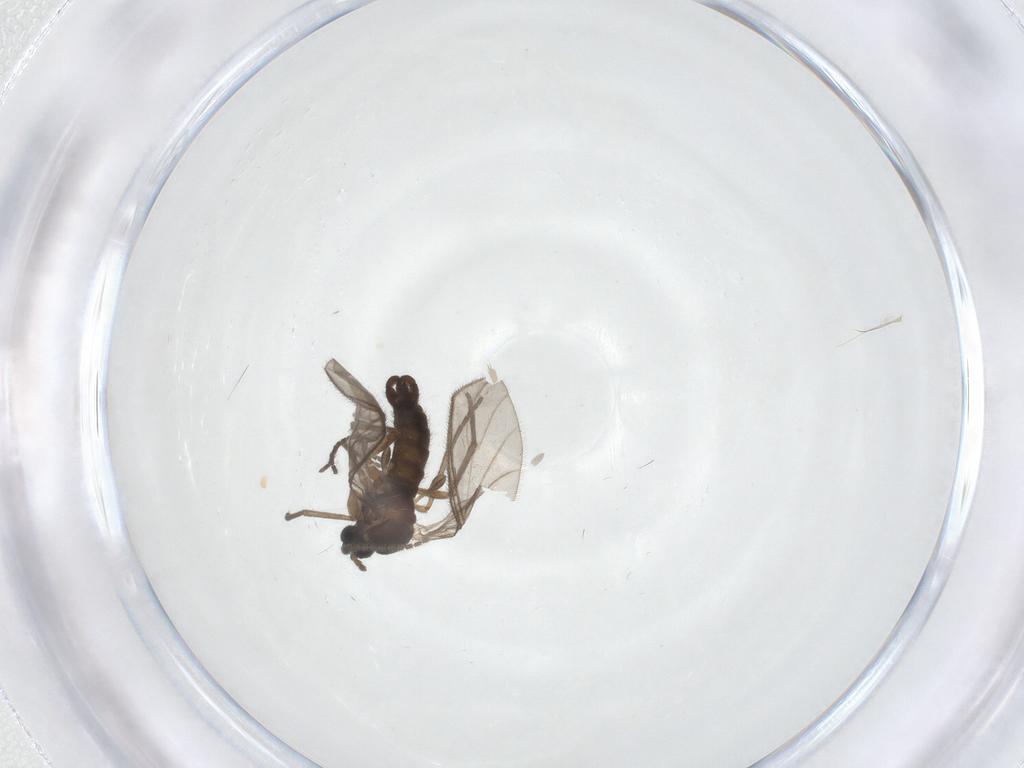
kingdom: Animalia
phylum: Arthropoda
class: Insecta
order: Diptera
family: Sciaridae
